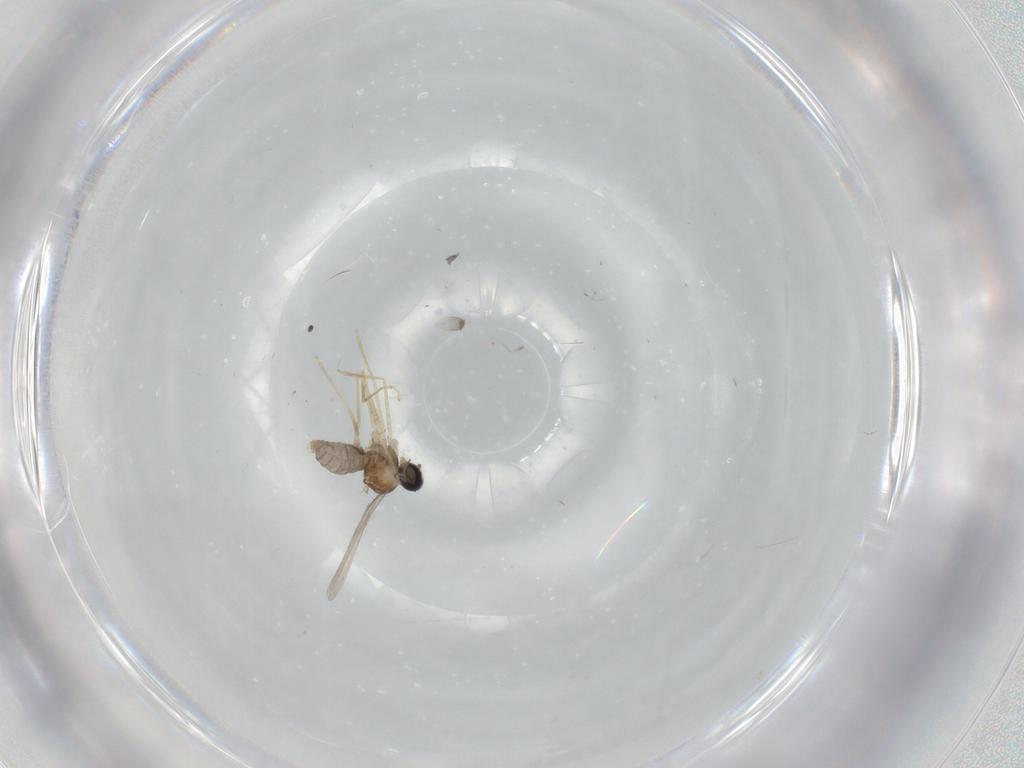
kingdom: Animalia
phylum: Arthropoda
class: Insecta
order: Diptera
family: Cecidomyiidae
